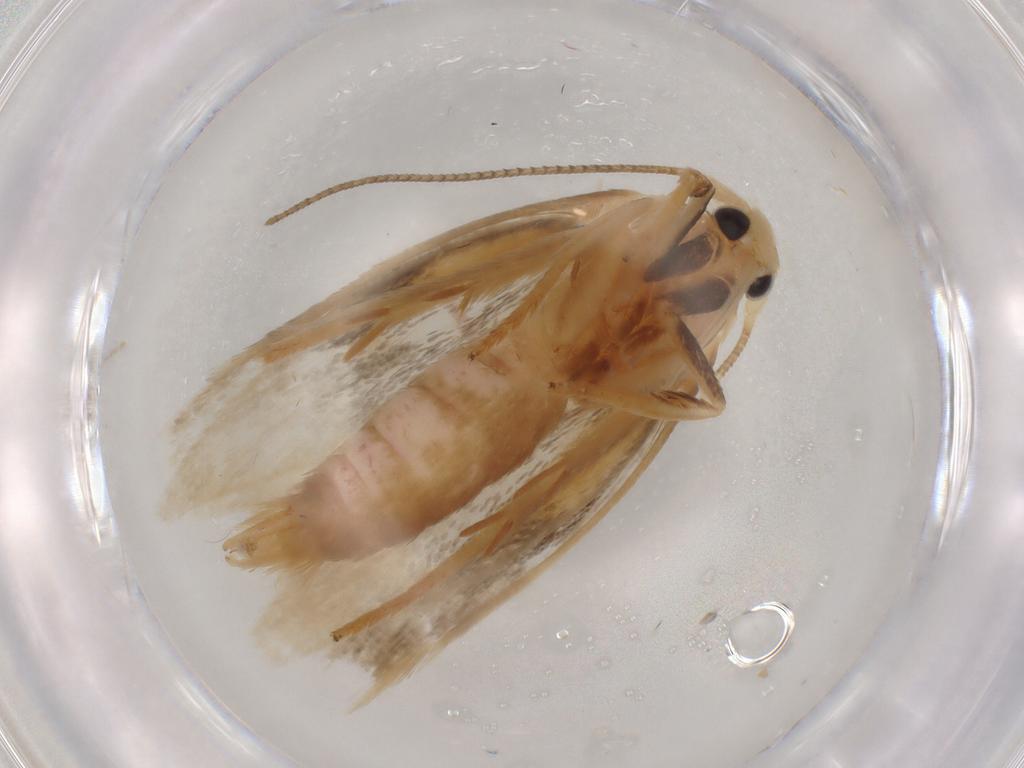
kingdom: Animalia
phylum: Arthropoda
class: Insecta
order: Lepidoptera
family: Geometridae
